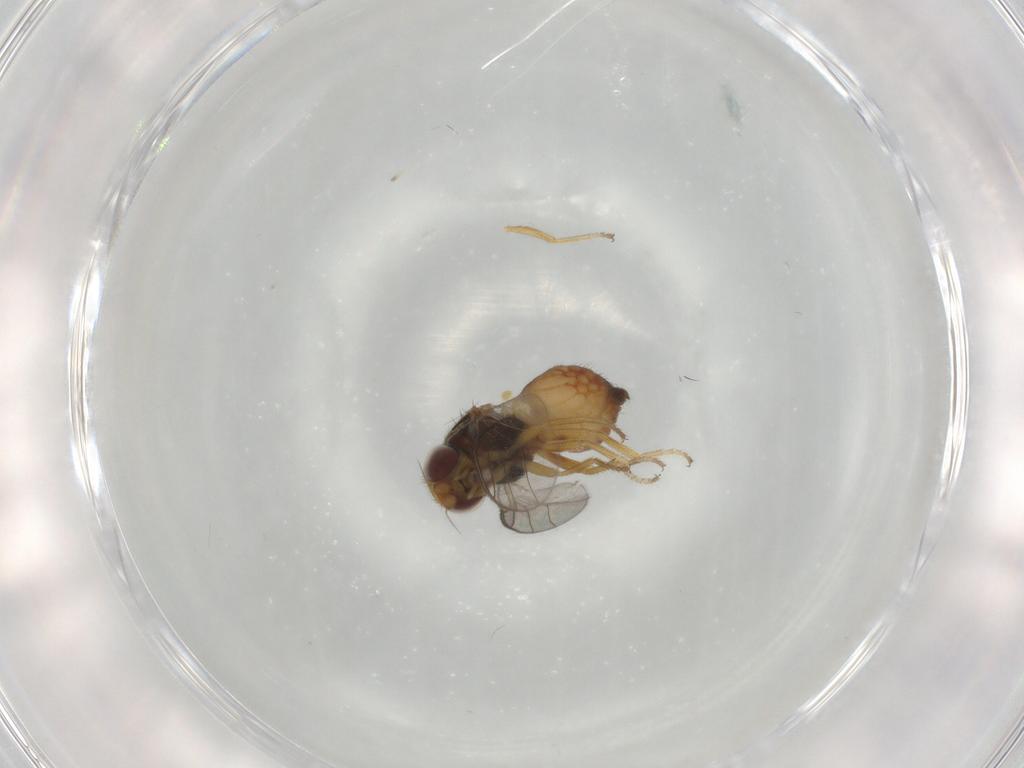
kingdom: Animalia
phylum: Arthropoda
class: Insecta
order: Diptera
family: Chloropidae
